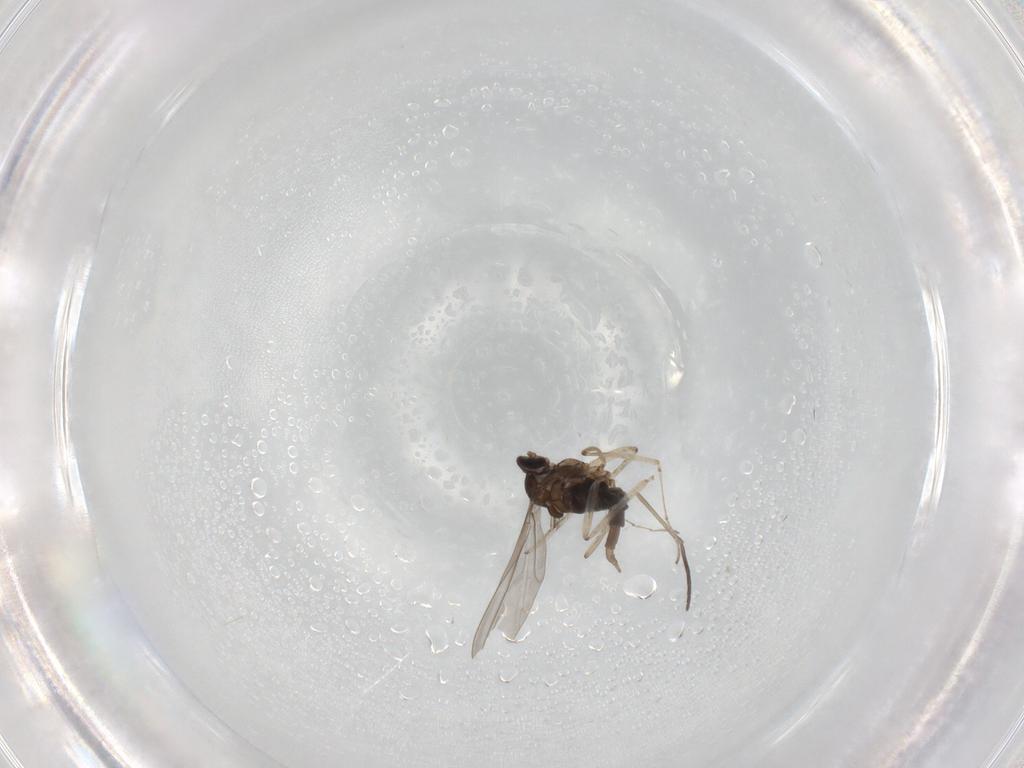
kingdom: Animalia
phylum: Arthropoda
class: Insecta
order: Diptera
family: Cecidomyiidae
